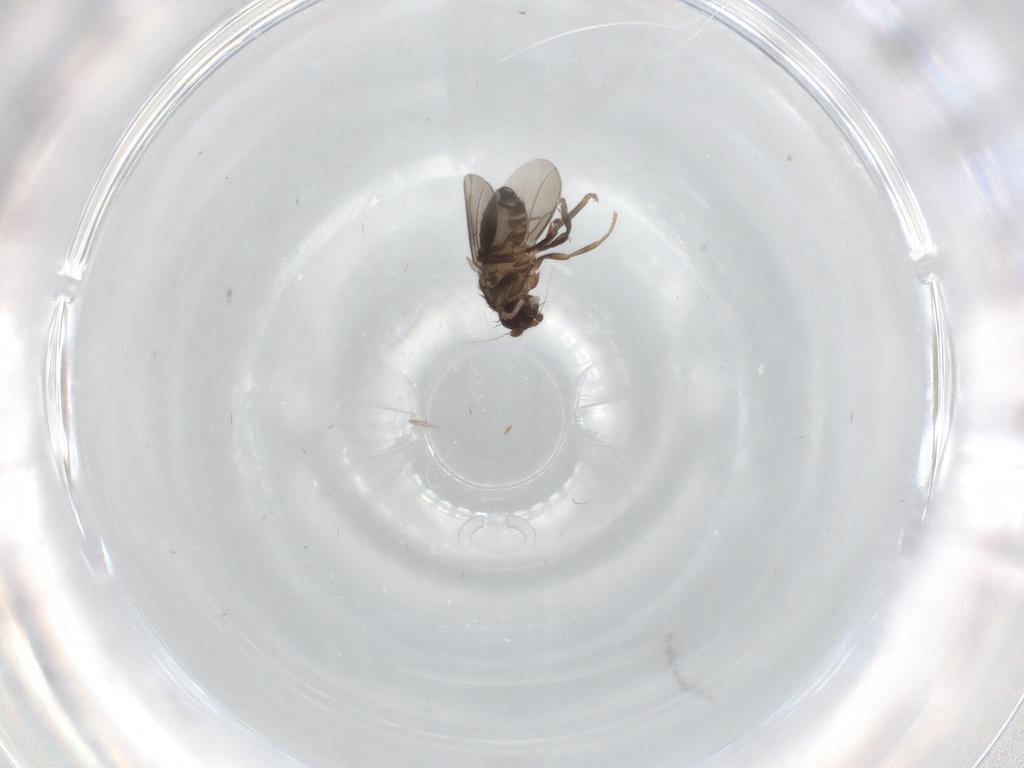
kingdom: Animalia
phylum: Arthropoda
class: Insecta
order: Diptera
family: Sphaeroceridae
